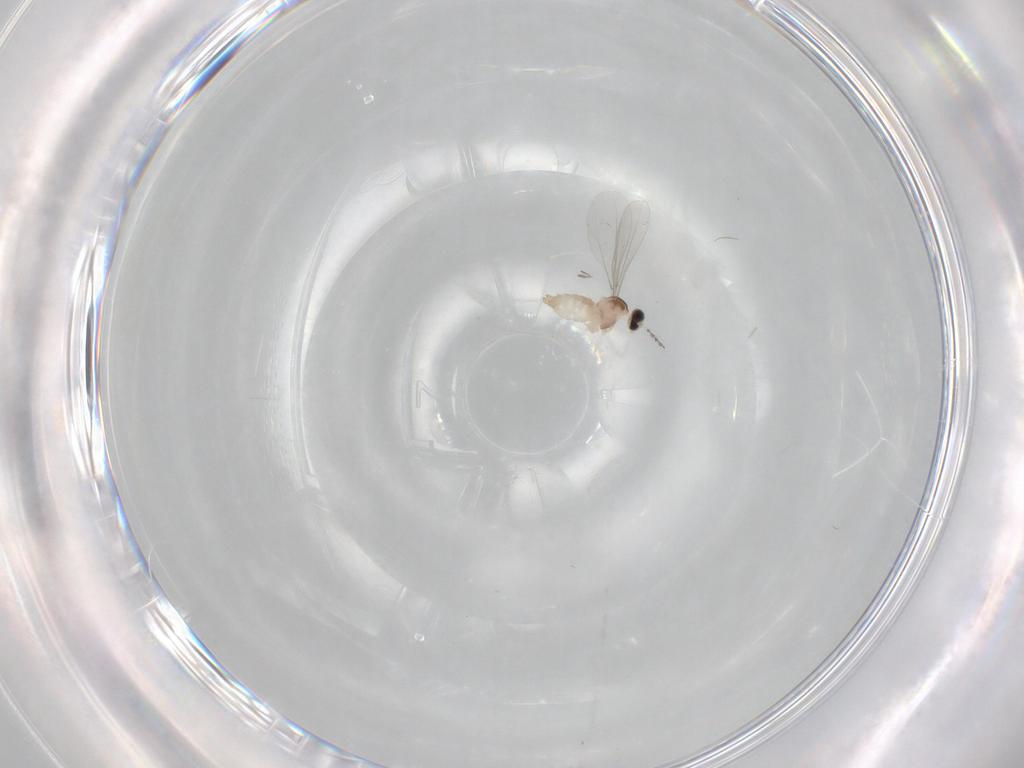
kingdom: Animalia
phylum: Arthropoda
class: Insecta
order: Diptera
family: Cecidomyiidae
